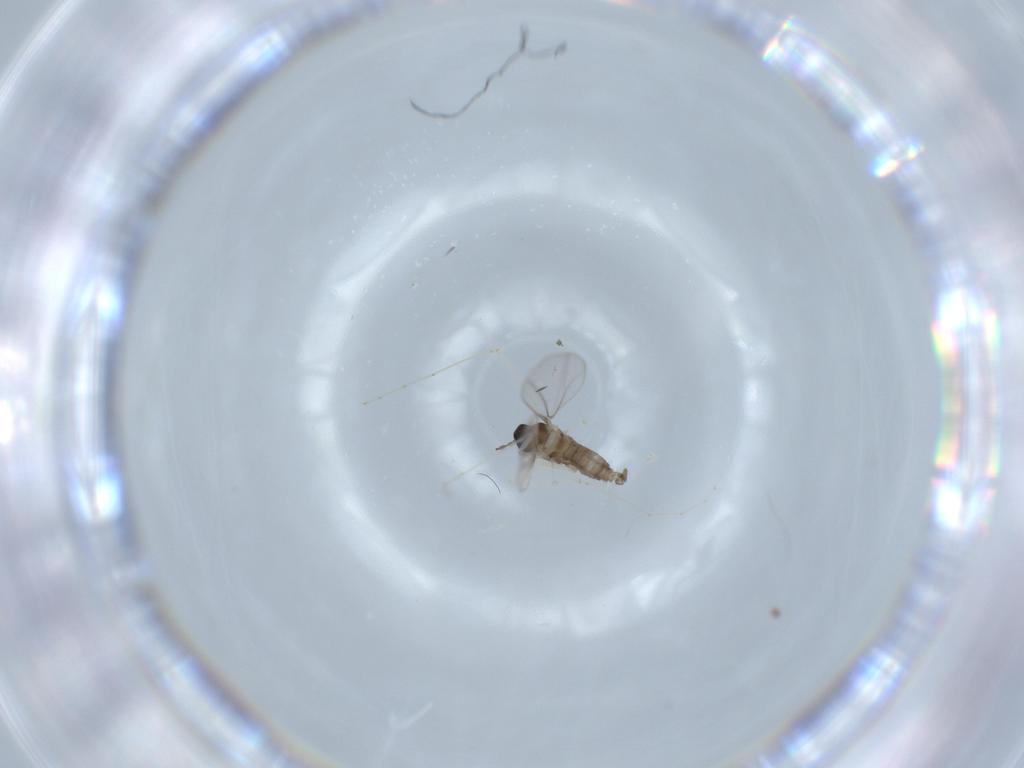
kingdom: Animalia
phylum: Arthropoda
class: Insecta
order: Diptera
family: Cecidomyiidae
